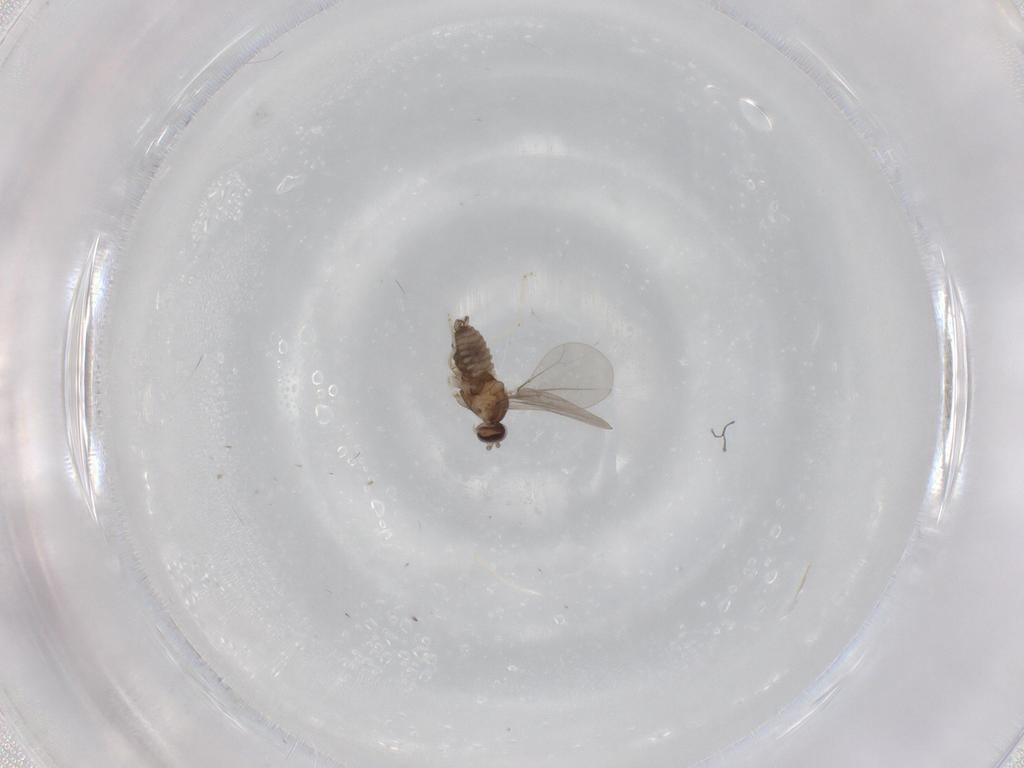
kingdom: Animalia
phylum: Arthropoda
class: Insecta
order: Diptera
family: Cecidomyiidae
